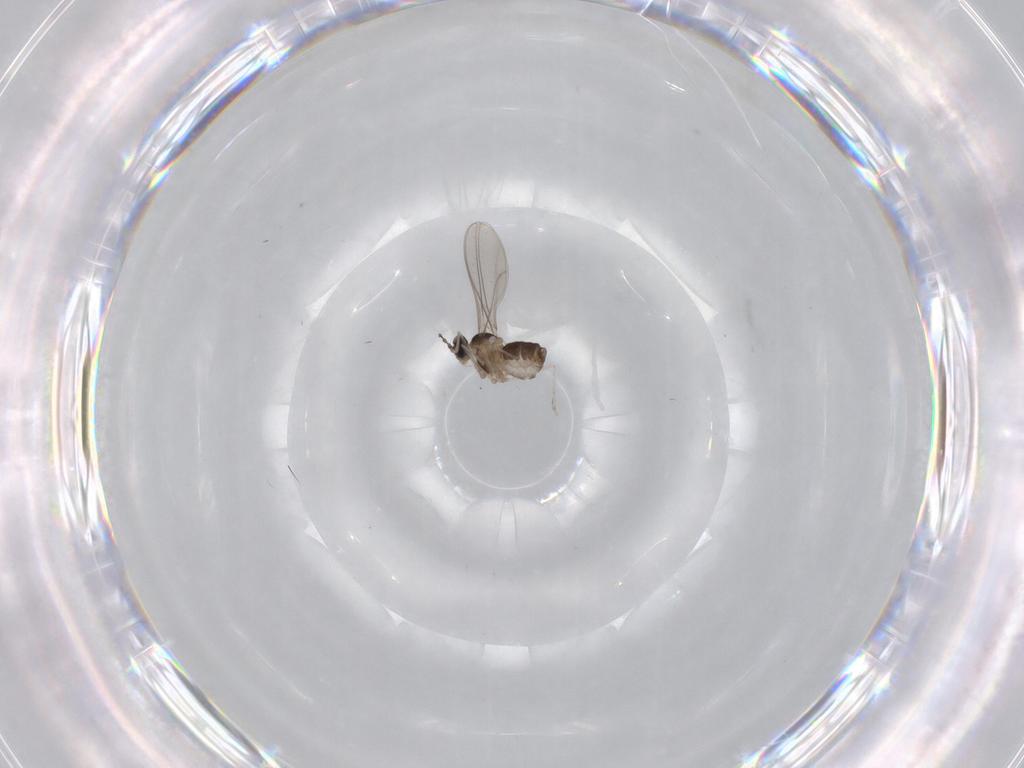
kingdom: Animalia
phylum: Arthropoda
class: Insecta
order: Diptera
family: Cecidomyiidae
